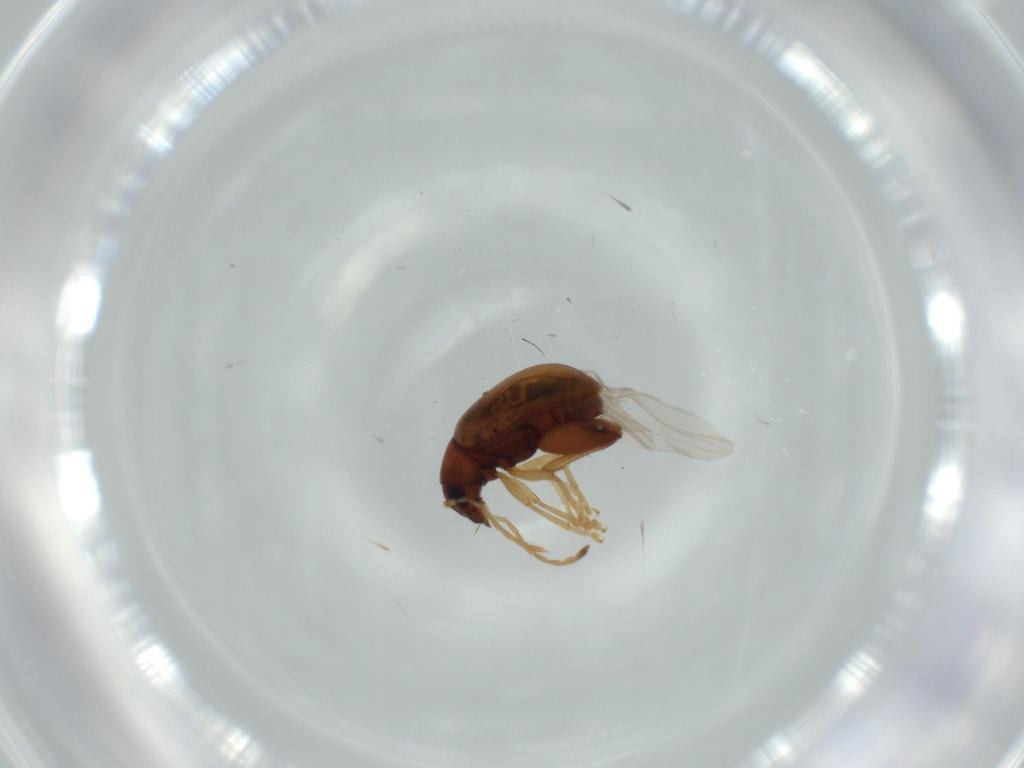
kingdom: Animalia
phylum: Arthropoda
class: Insecta
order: Coleoptera
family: Chrysomelidae
